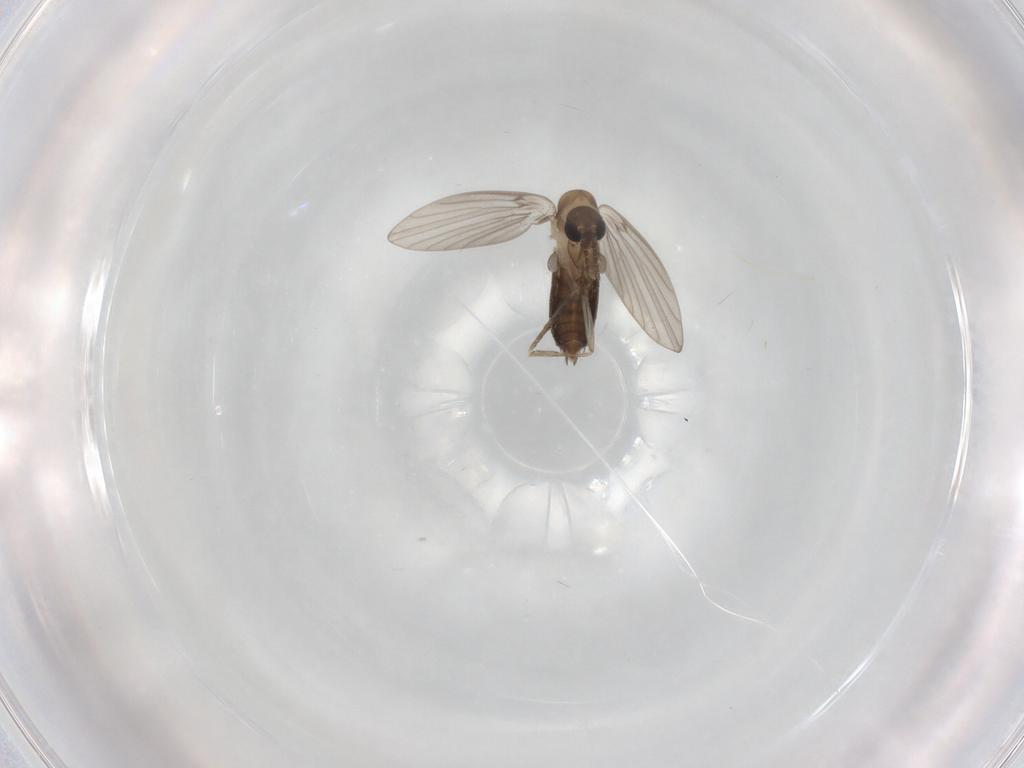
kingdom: Animalia
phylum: Arthropoda
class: Insecta
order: Diptera
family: Psychodidae
